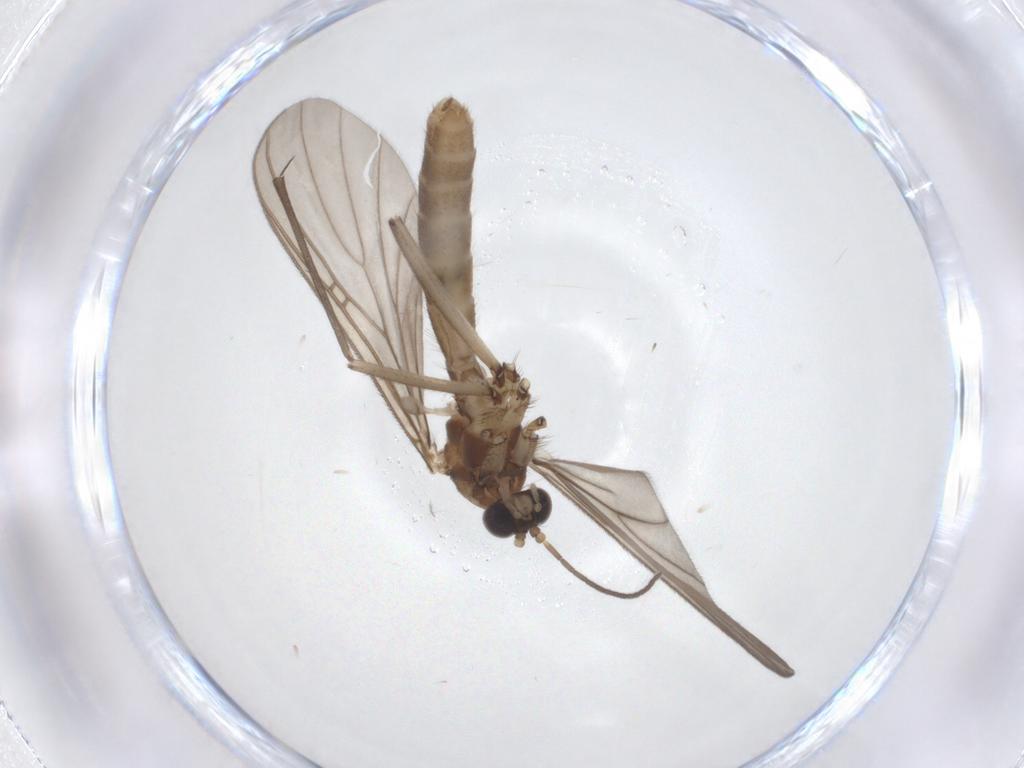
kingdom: Animalia
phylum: Arthropoda
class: Insecta
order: Diptera
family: Mycetophilidae
